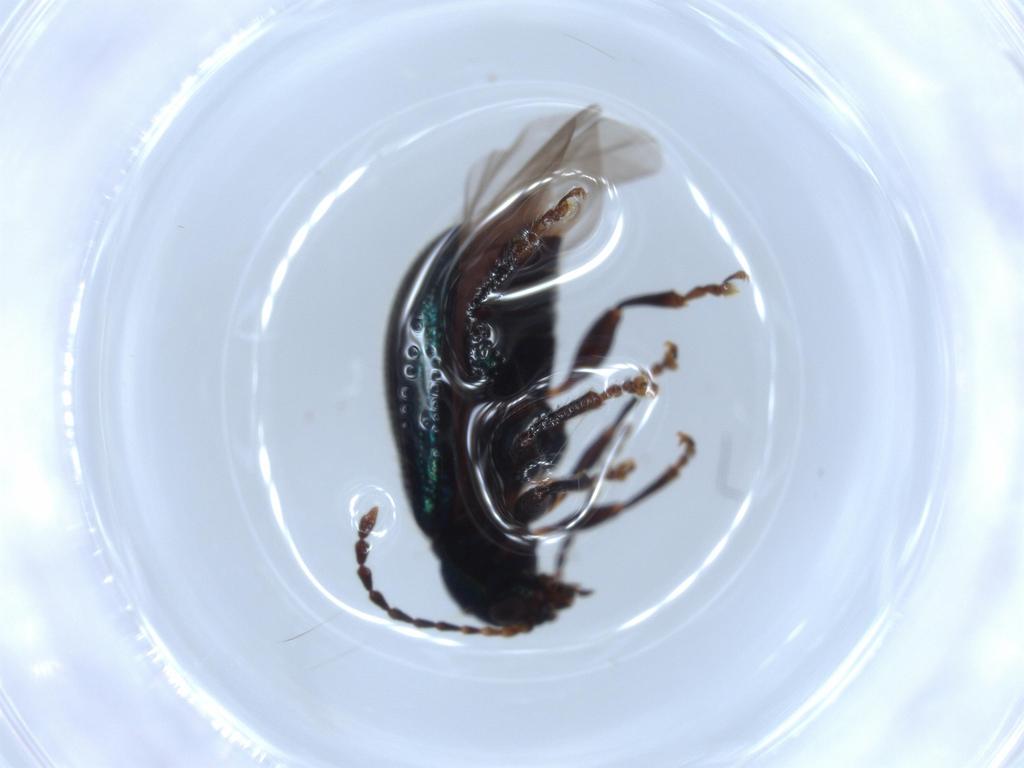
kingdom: Animalia
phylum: Arthropoda
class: Insecta
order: Coleoptera
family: Chrysomelidae
